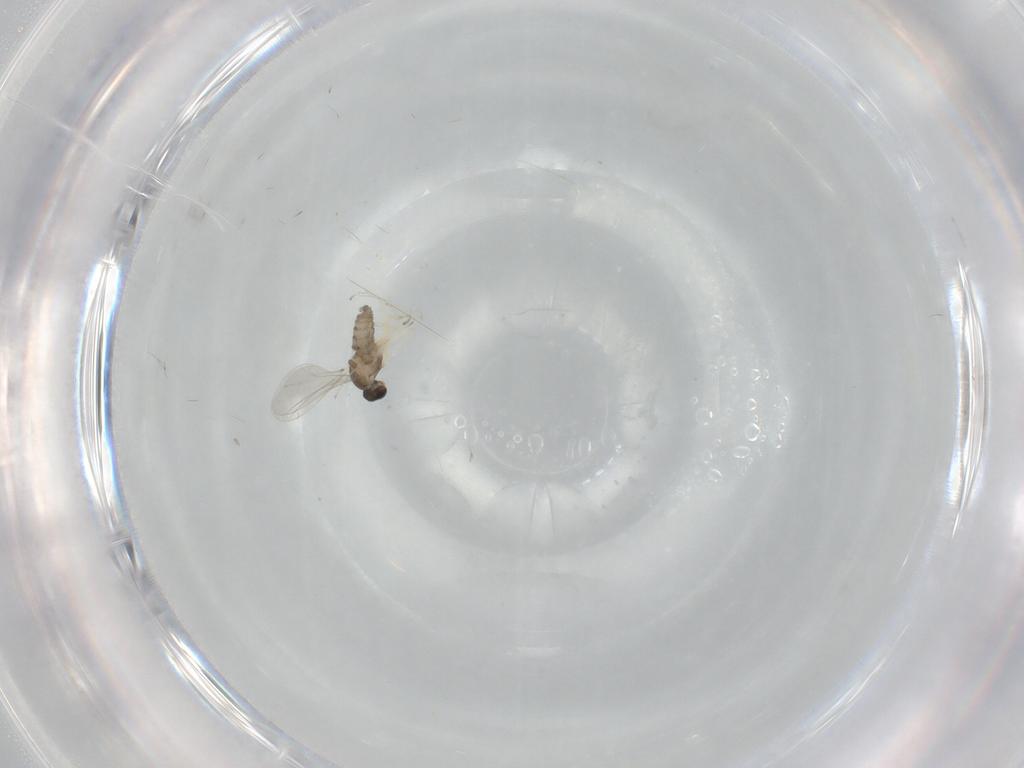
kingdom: Animalia
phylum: Arthropoda
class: Insecta
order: Diptera
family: Cecidomyiidae
